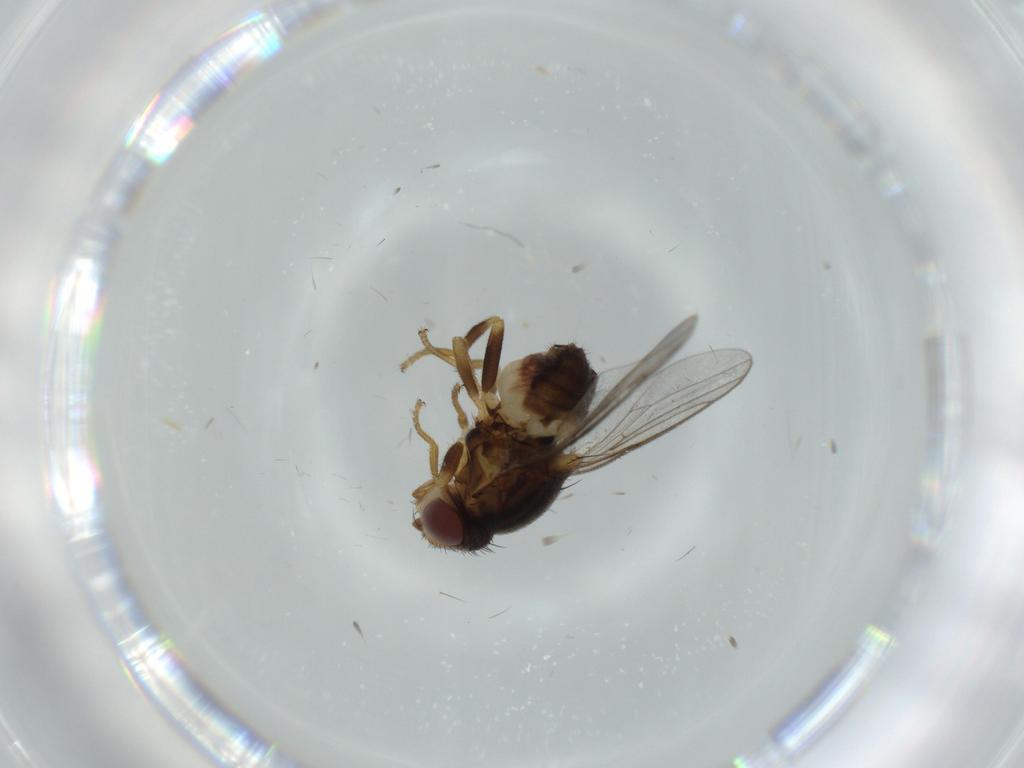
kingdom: Animalia
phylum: Arthropoda
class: Insecta
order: Diptera
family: Chloropidae
